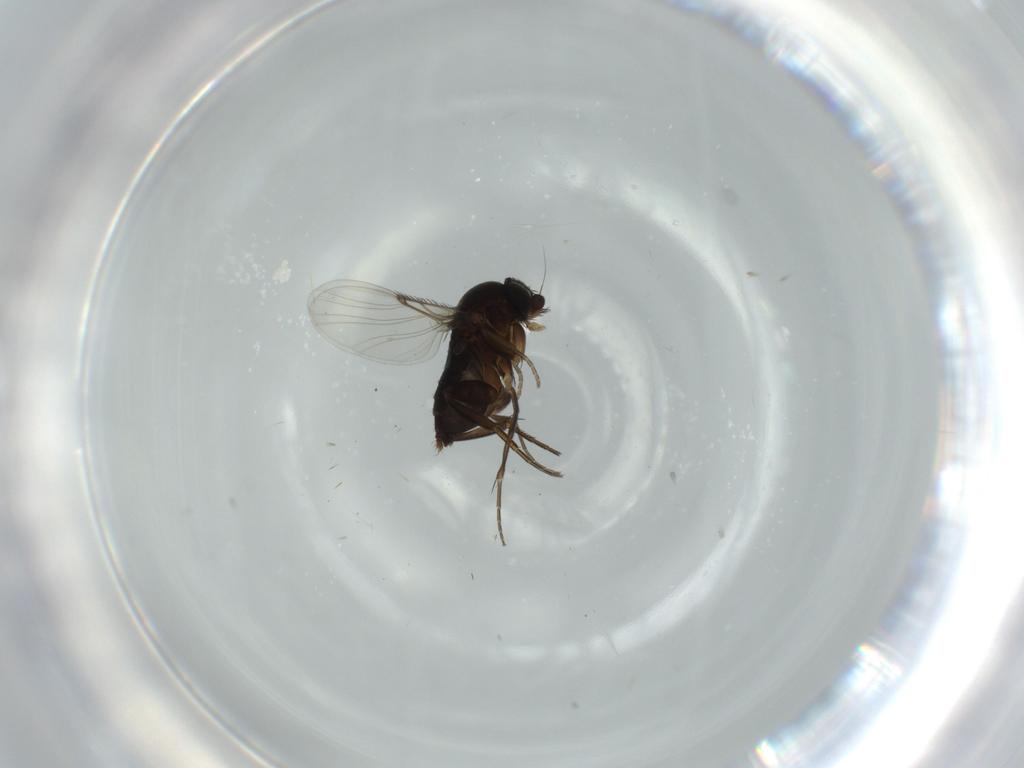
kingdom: Animalia
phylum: Arthropoda
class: Insecta
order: Diptera
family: Phoridae
